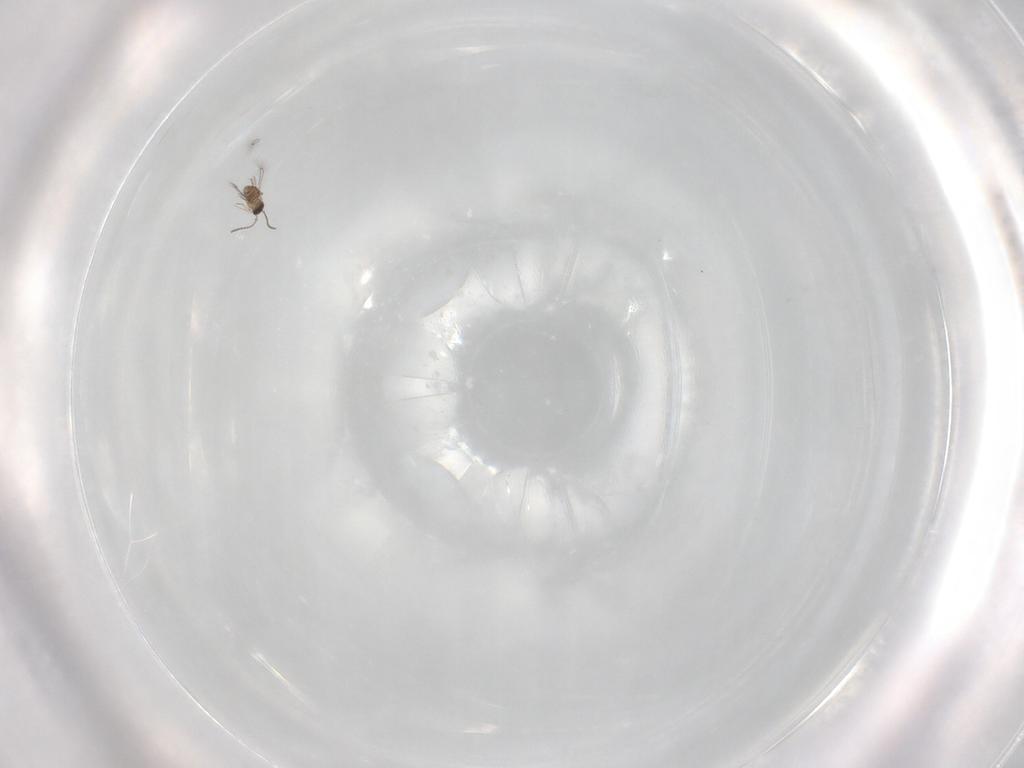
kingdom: Animalia
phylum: Arthropoda
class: Insecta
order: Hymenoptera
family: Mymaridae
